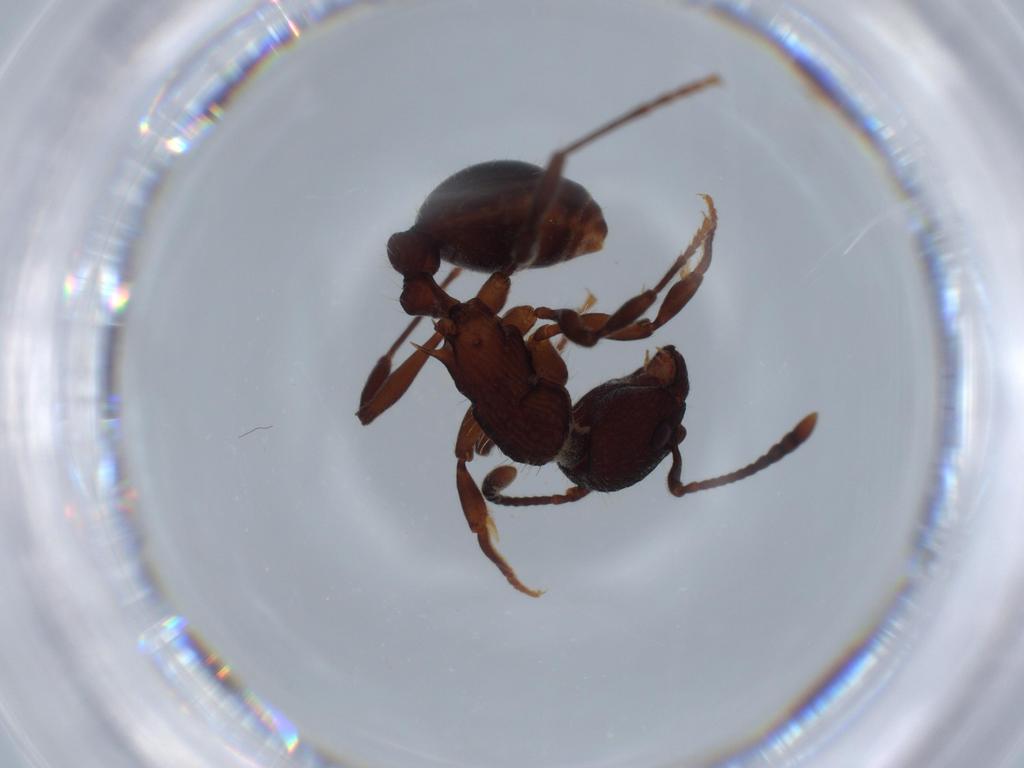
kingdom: Animalia
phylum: Arthropoda
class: Insecta
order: Hymenoptera
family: Formicidae
